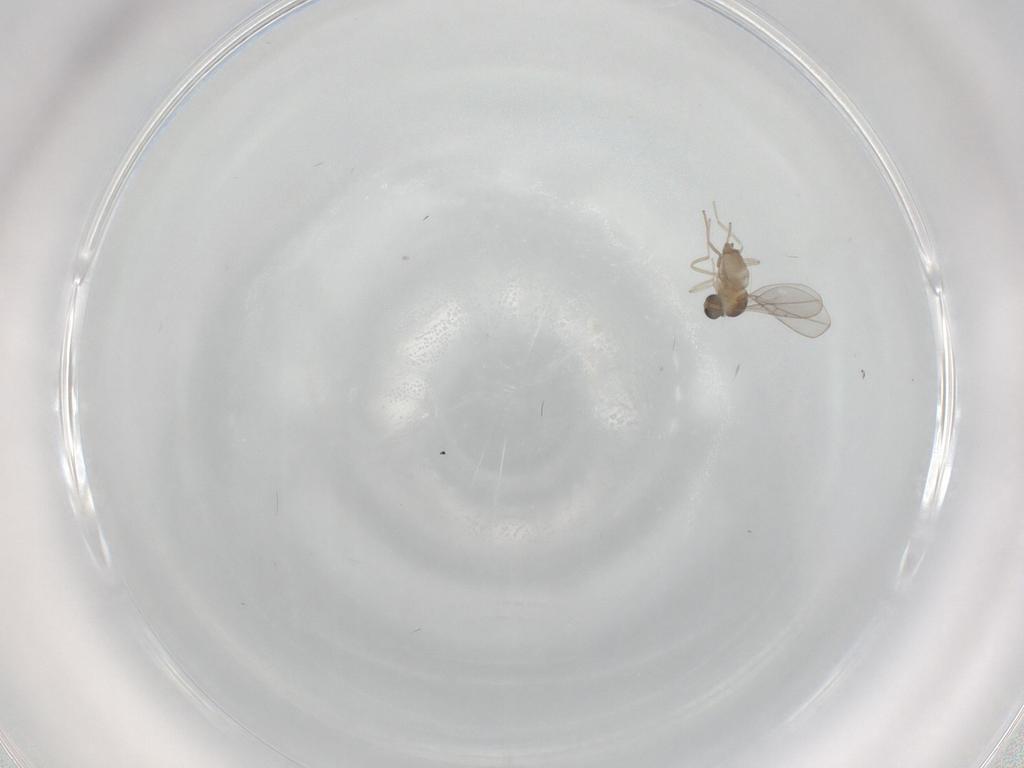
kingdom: Animalia
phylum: Arthropoda
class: Insecta
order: Diptera
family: Cecidomyiidae
